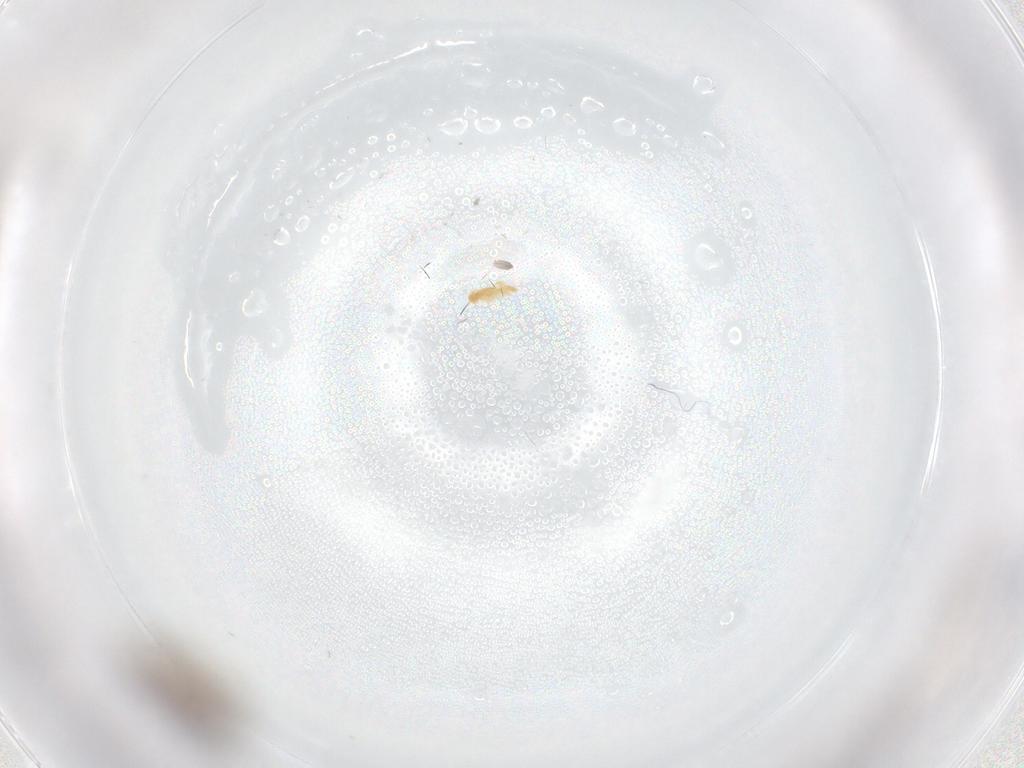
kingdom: Animalia
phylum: Arthropoda
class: Insecta
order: Diptera
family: Ceratopogonidae
